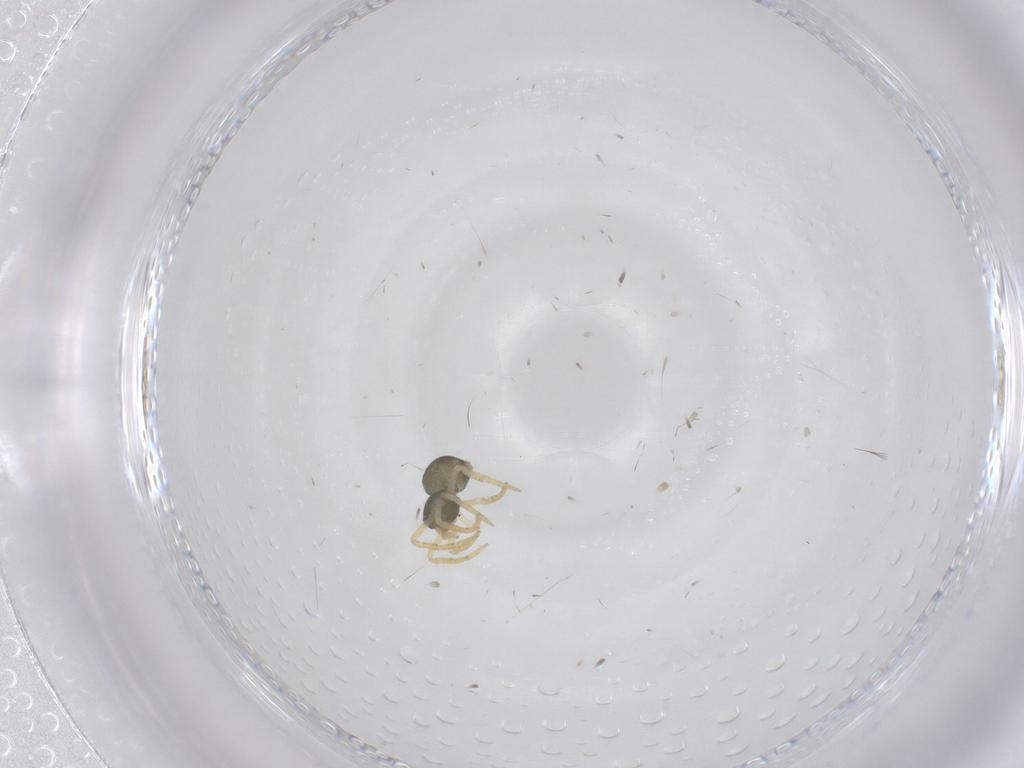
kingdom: Animalia
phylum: Arthropoda
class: Arachnida
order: Araneae
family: Theridiidae
